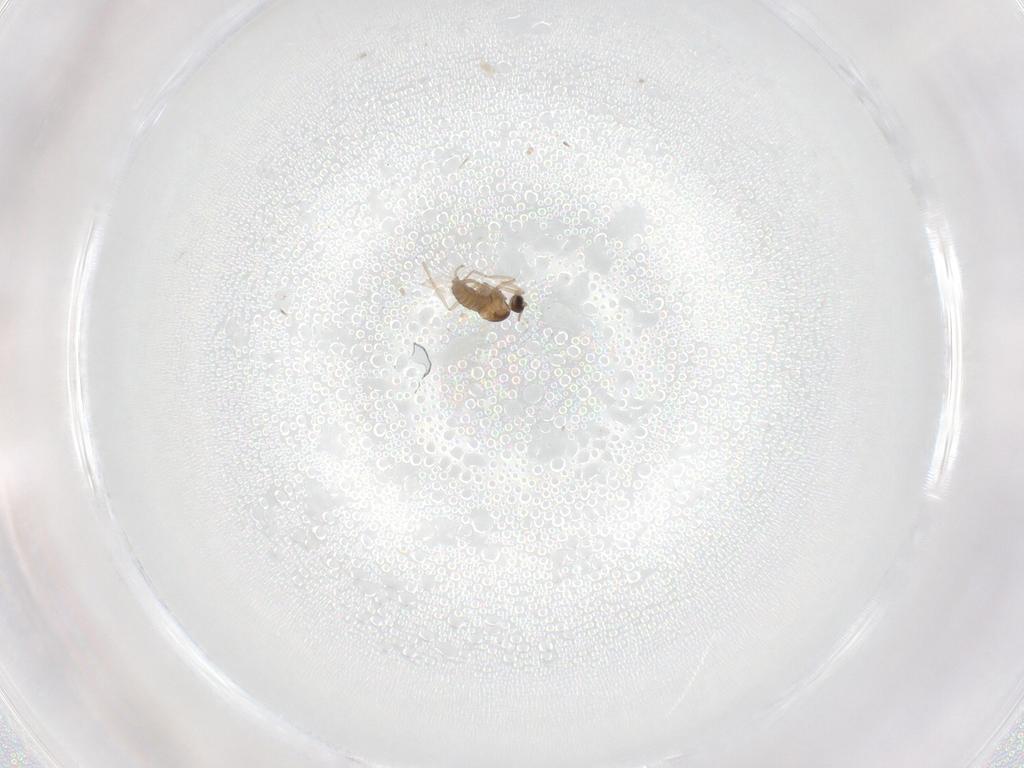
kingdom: Animalia
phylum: Arthropoda
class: Insecta
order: Diptera
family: Cecidomyiidae
